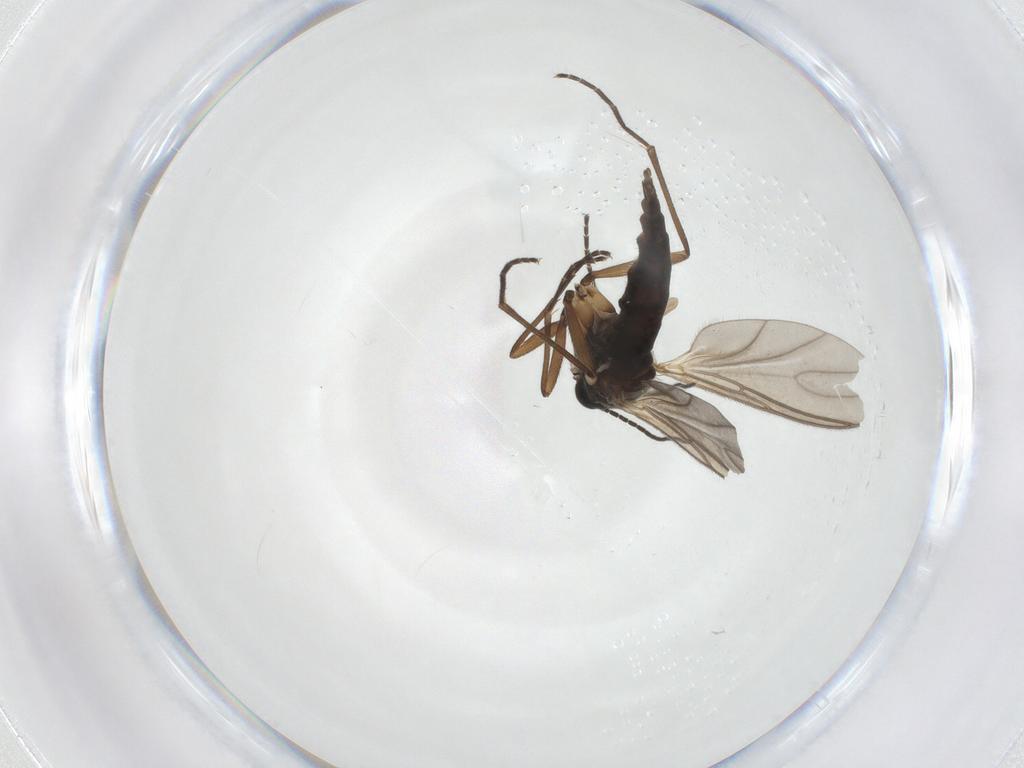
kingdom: Animalia
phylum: Arthropoda
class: Insecta
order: Diptera
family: Sciaridae
